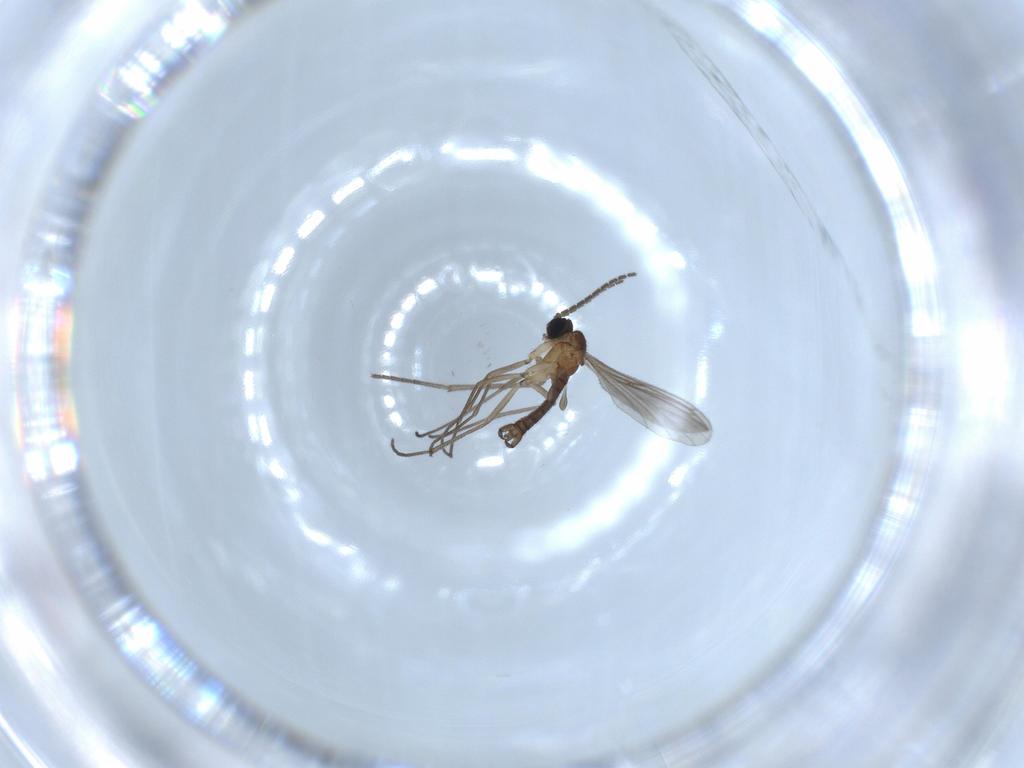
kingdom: Animalia
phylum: Arthropoda
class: Insecta
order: Diptera
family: Sciaridae
